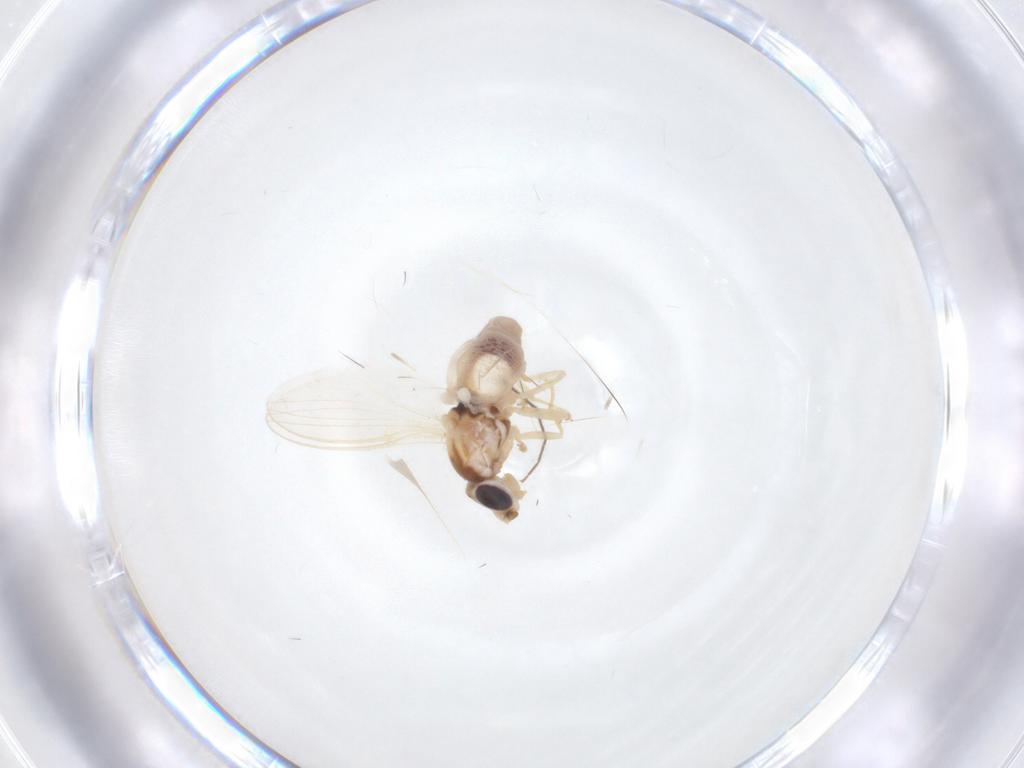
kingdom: Animalia
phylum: Arthropoda
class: Insecta
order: Diptera
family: Chloropidae
